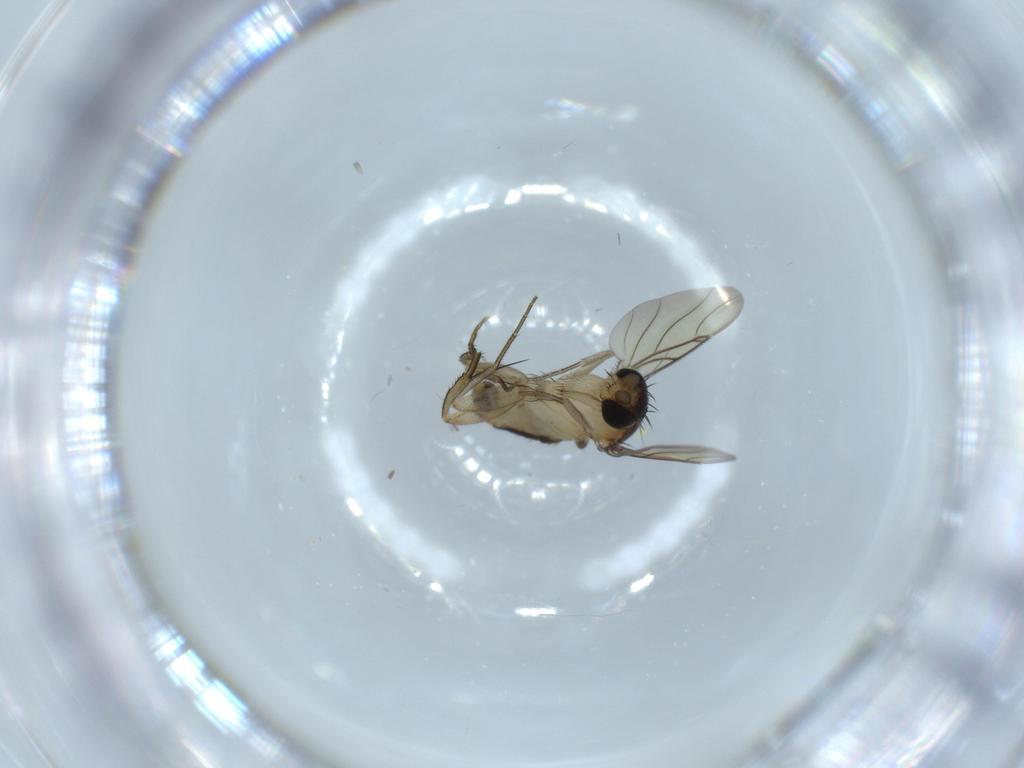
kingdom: Animalia
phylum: Arthropoda
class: Insecta
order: Diptera
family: Phoridae
